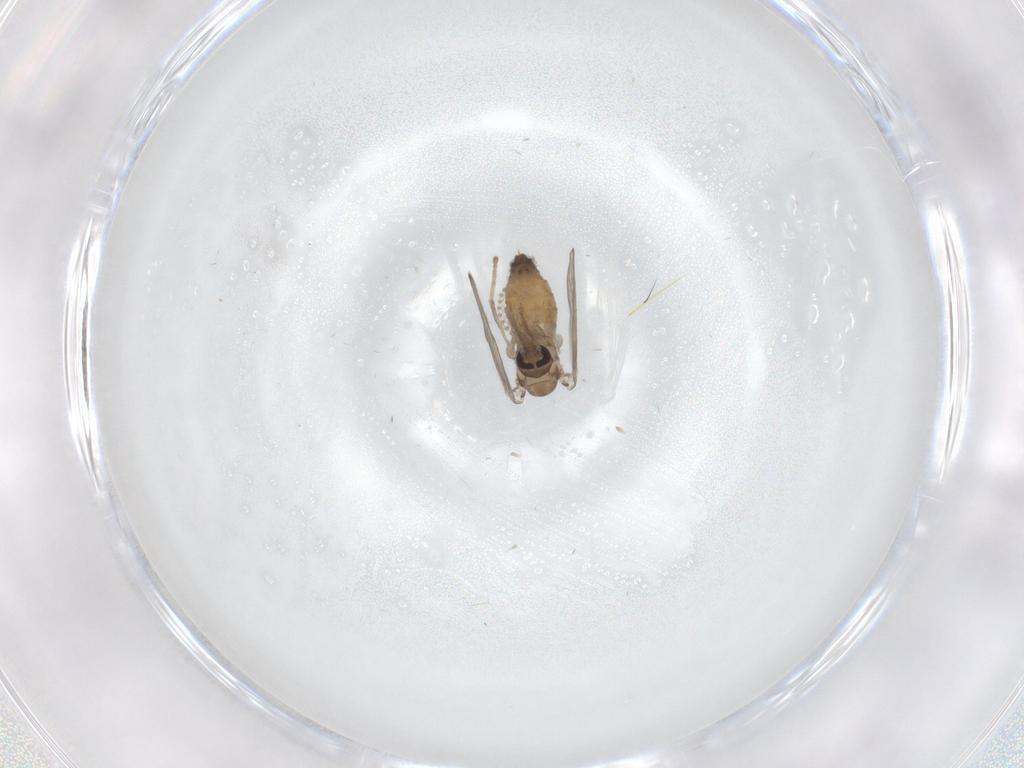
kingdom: Animalia
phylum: Arthropoda
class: Insecta
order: Diptera
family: Psychodidae
